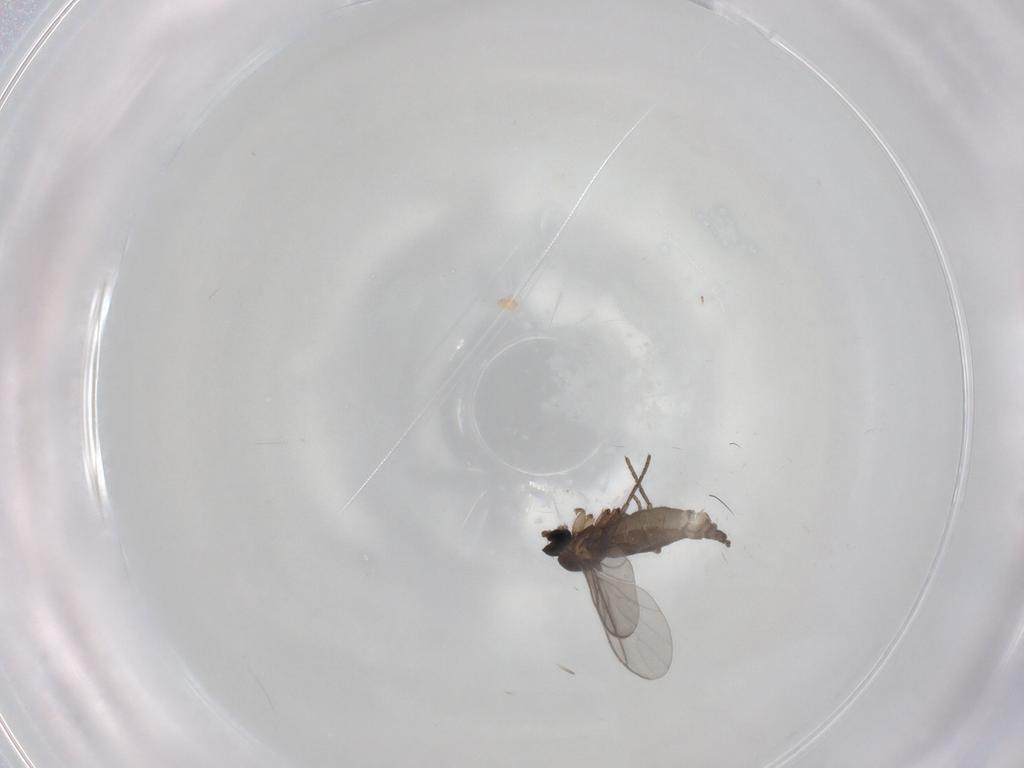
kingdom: Animalia
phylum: Arthropoda
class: Insecta
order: Diptera
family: Sciaridae
